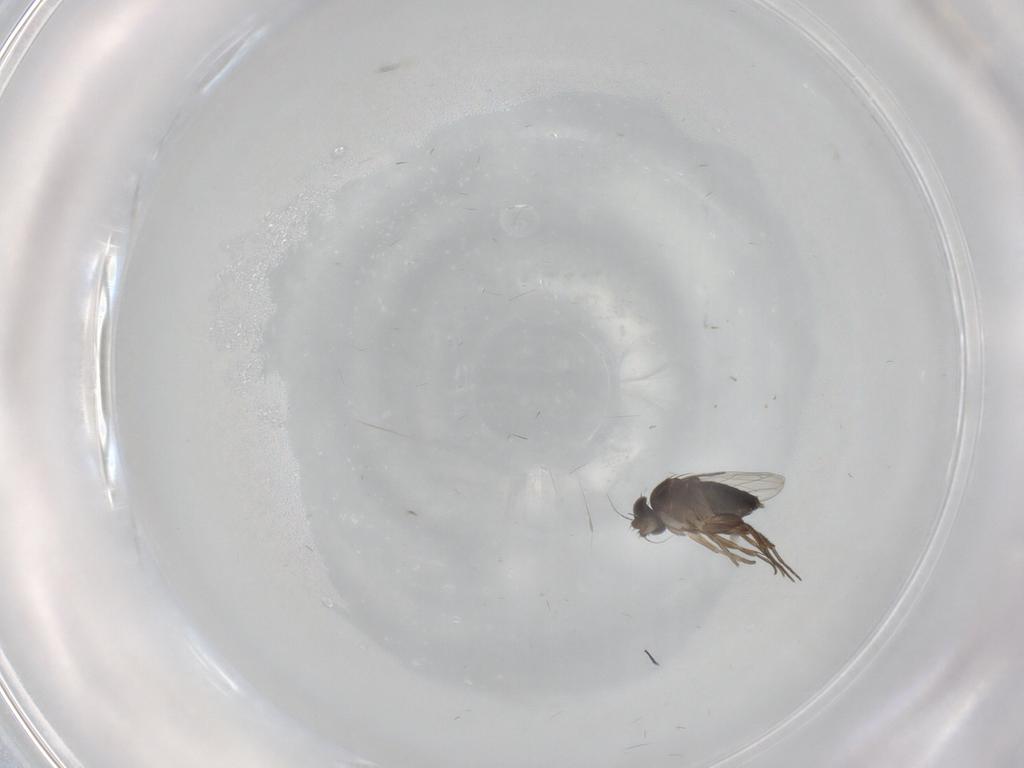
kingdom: Animalia
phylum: Arthropoda
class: Insecta
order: Diptera
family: Phoridae
